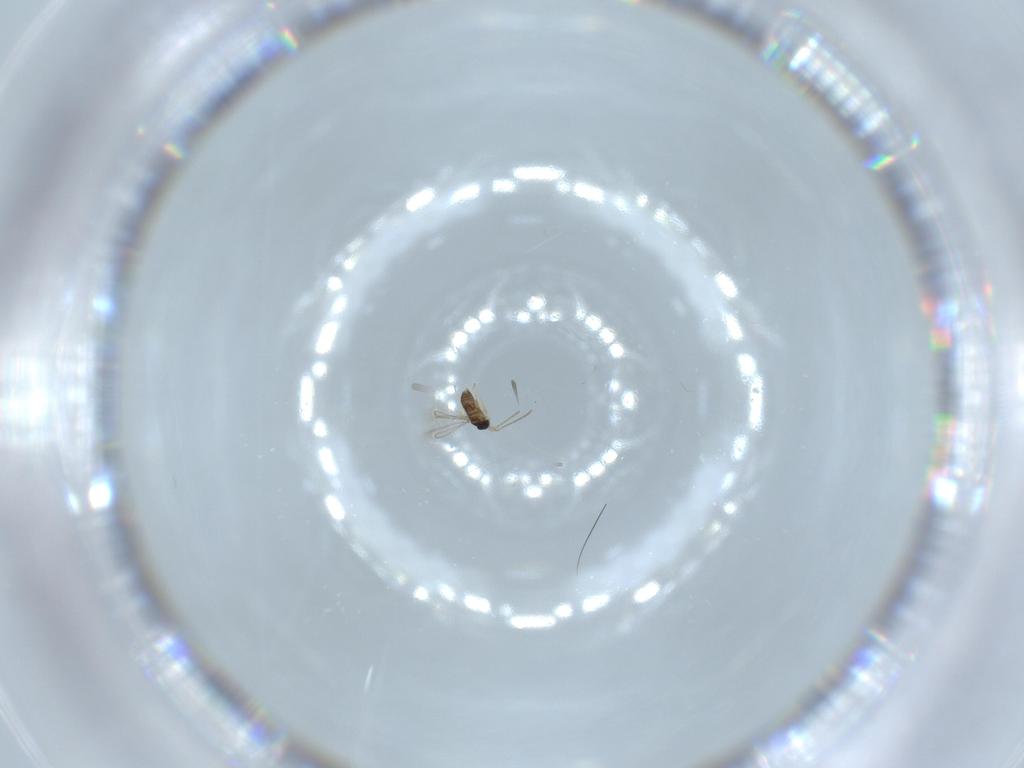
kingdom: Animalia
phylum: Arthropoda
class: Insecta
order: Hymenoptera
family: Mymaridae
